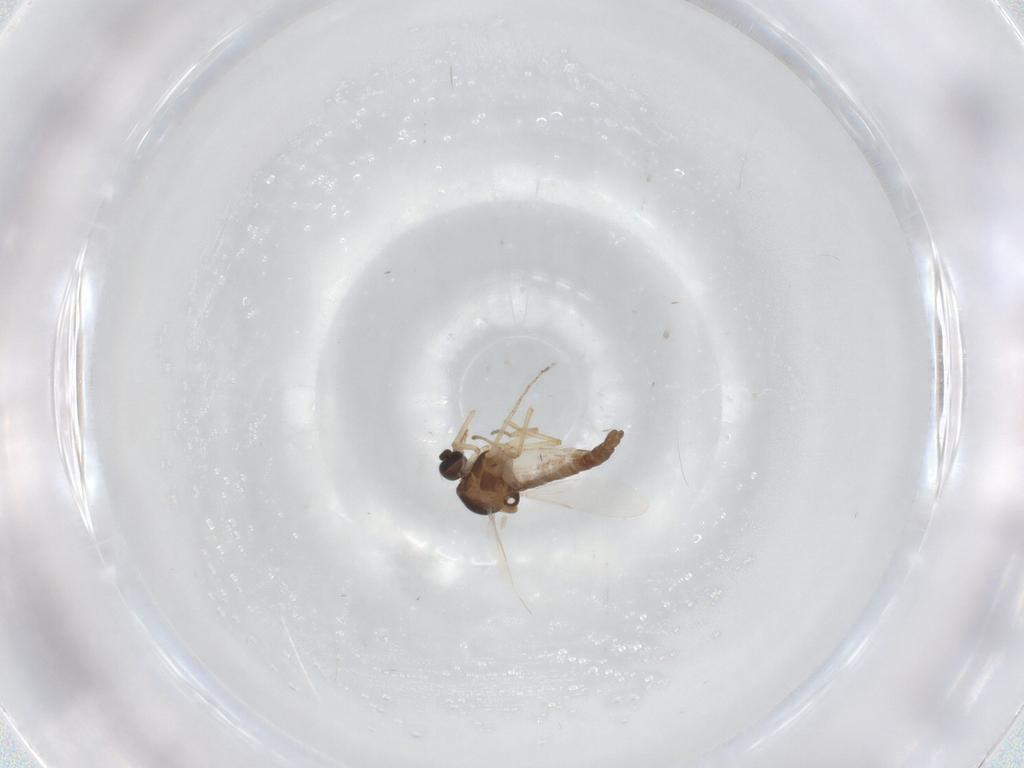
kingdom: Animalia
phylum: Arthropoda
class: Insecta
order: Diptera
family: Ceratopogonidae
